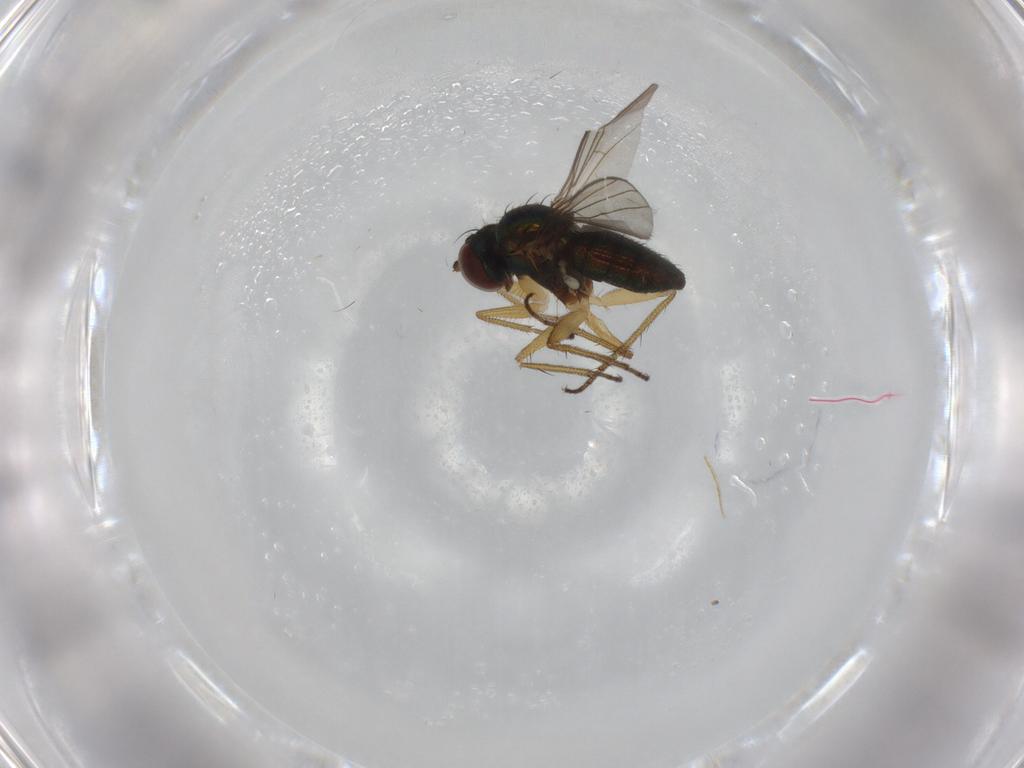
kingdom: Animalia
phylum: Arthropoda
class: Insecta
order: Diptera
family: Dolichopodidae
